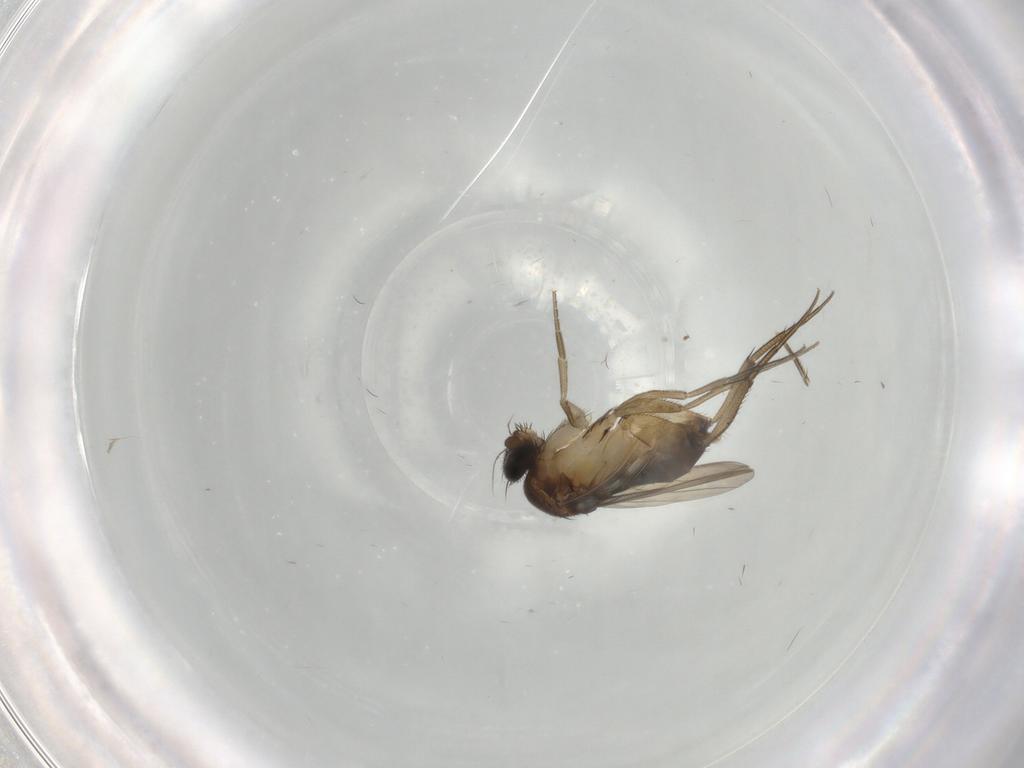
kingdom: Animalia
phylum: Arthropoda
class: Insecta
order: Diptera
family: Phoridae
